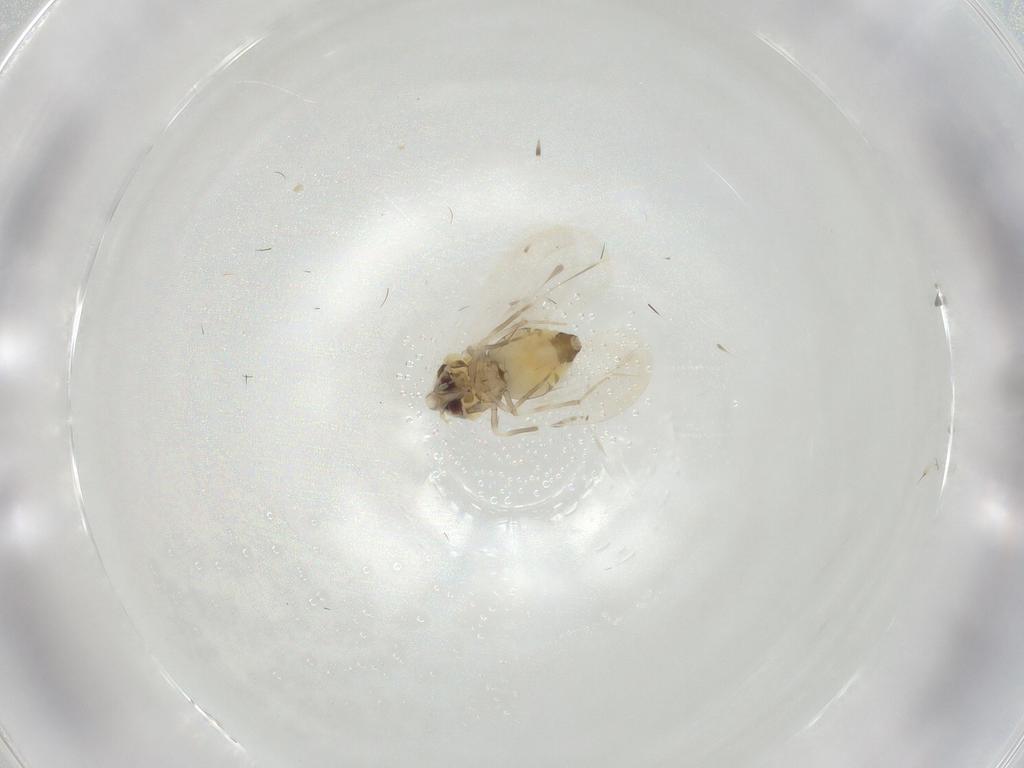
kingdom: Animalia
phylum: Arthropoda
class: Insecta
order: Hemiptera
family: Aleyrodidae
